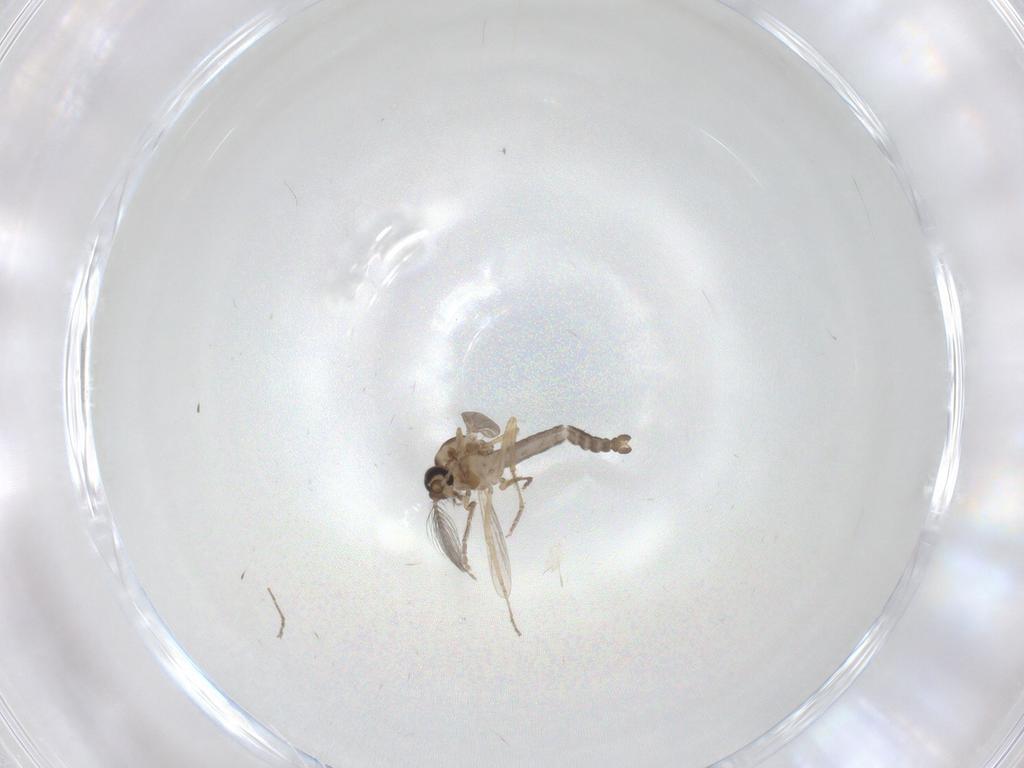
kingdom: Animalia
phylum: Arthropoda
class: Insecta
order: Diptera
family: Ceratopogonidae
